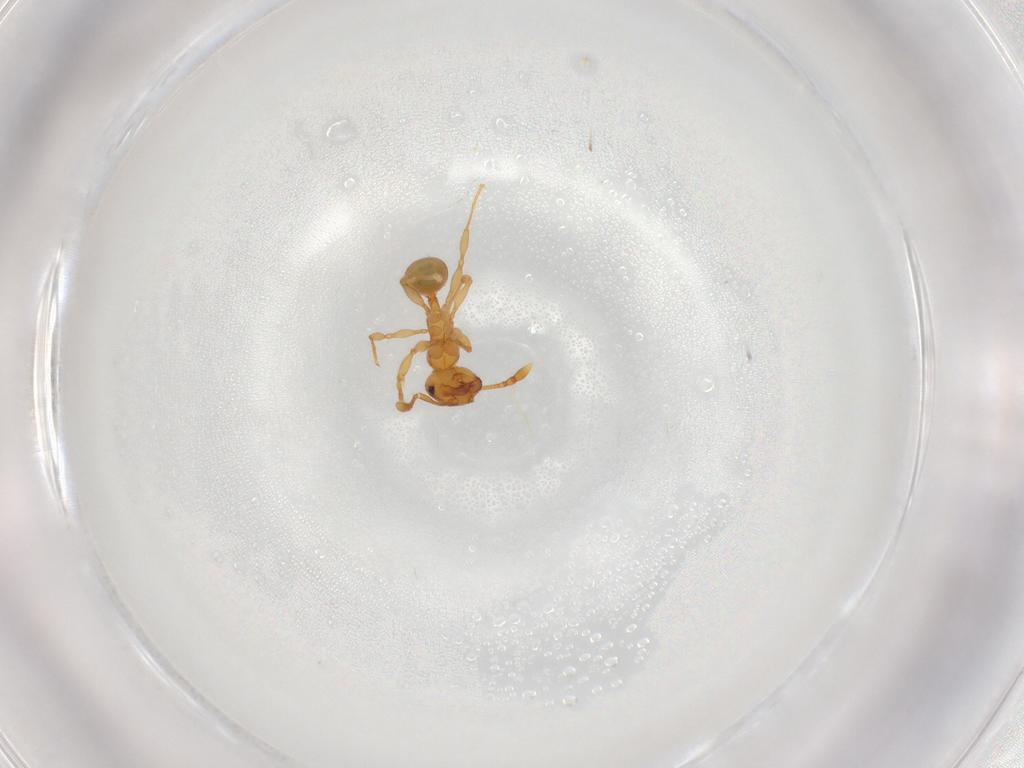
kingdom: Animalia
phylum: Arthropoda
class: Insecta
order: Hymenoptera
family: Formicidae
